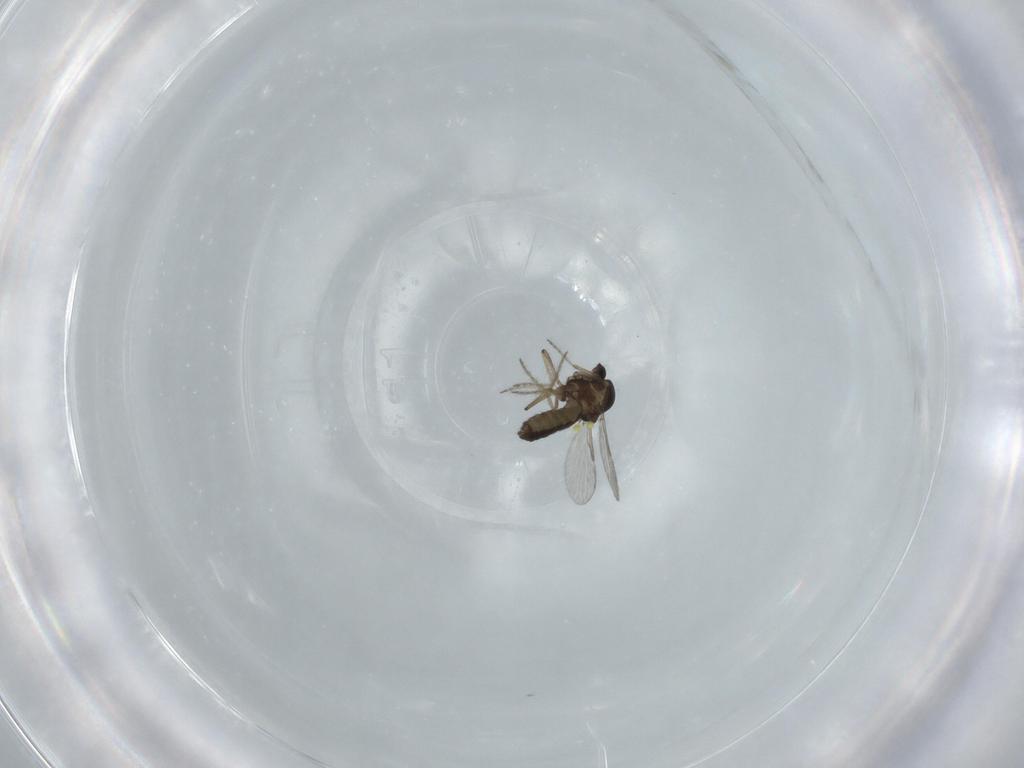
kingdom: Animalia
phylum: Arthropoda
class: Insecta
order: Diptera
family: Ceratopogonidae
